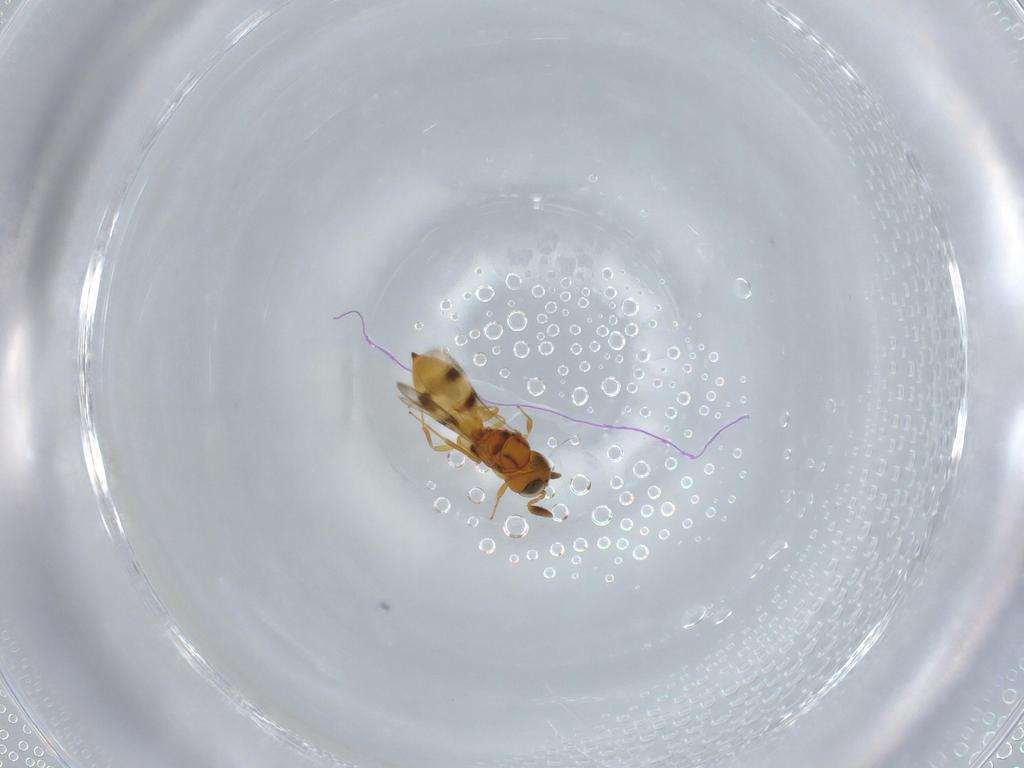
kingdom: Animalia
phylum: Arthropoda
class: Insecta
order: Hymenoptera
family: Scelionidae
